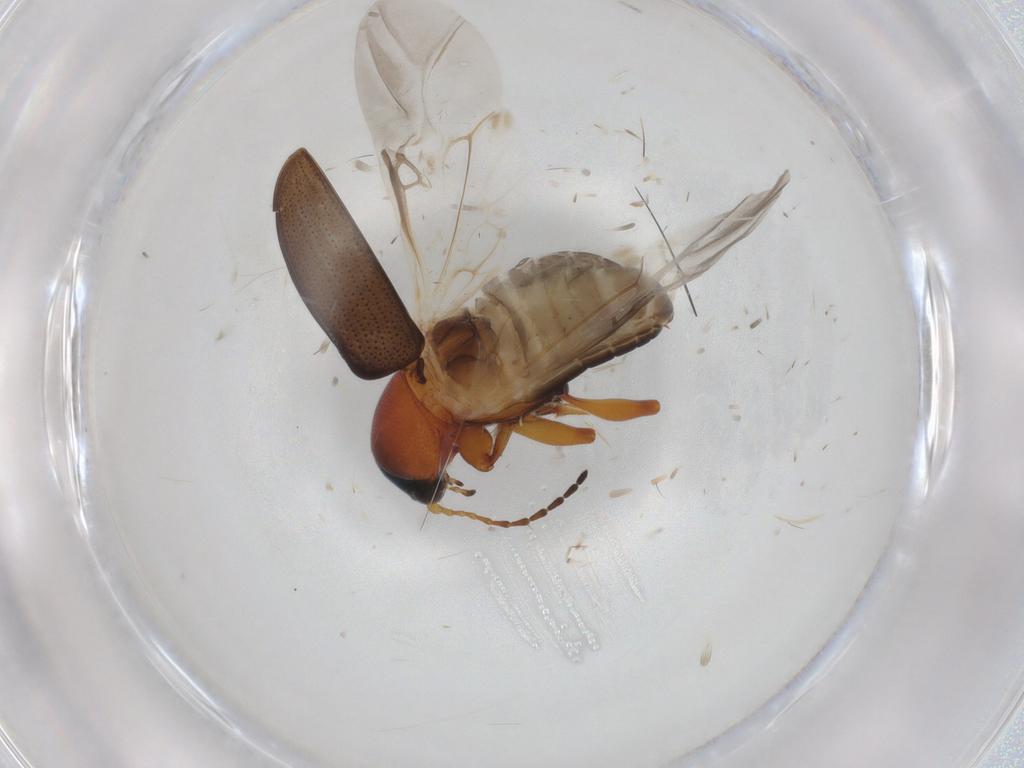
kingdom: Animalia
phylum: Arthropoda
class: Insecta
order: Coleoptera
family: Chrysomelidae
